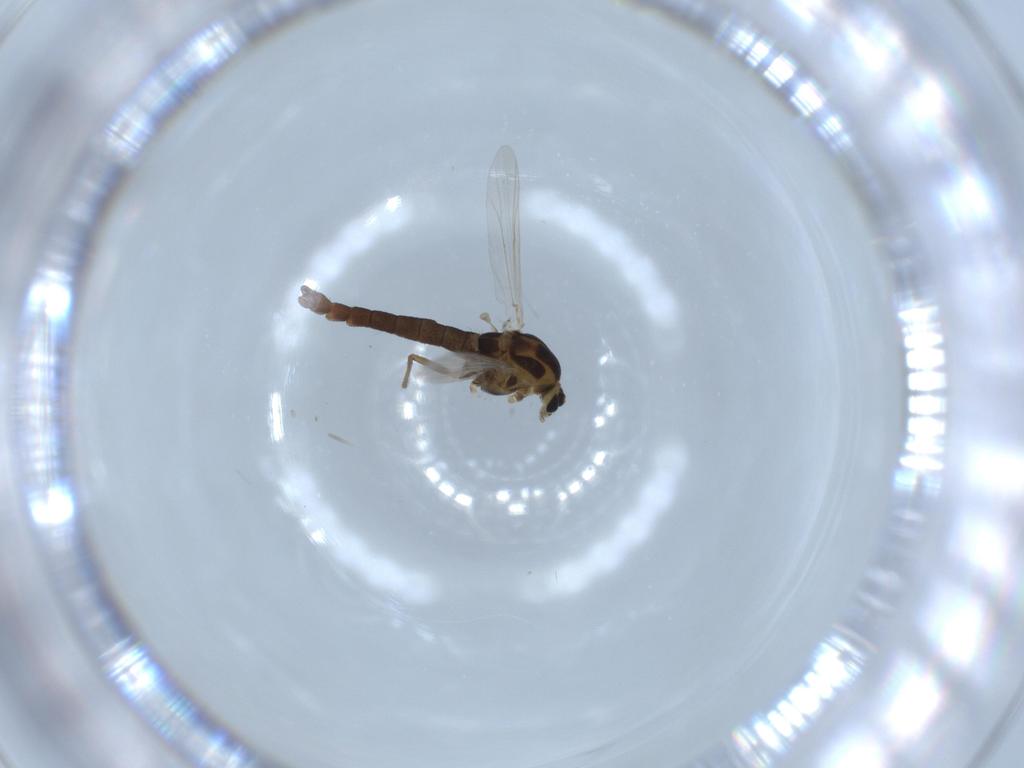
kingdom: Animalia
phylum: Arthropoda
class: Insecta
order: Diptera
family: Chironomidae
